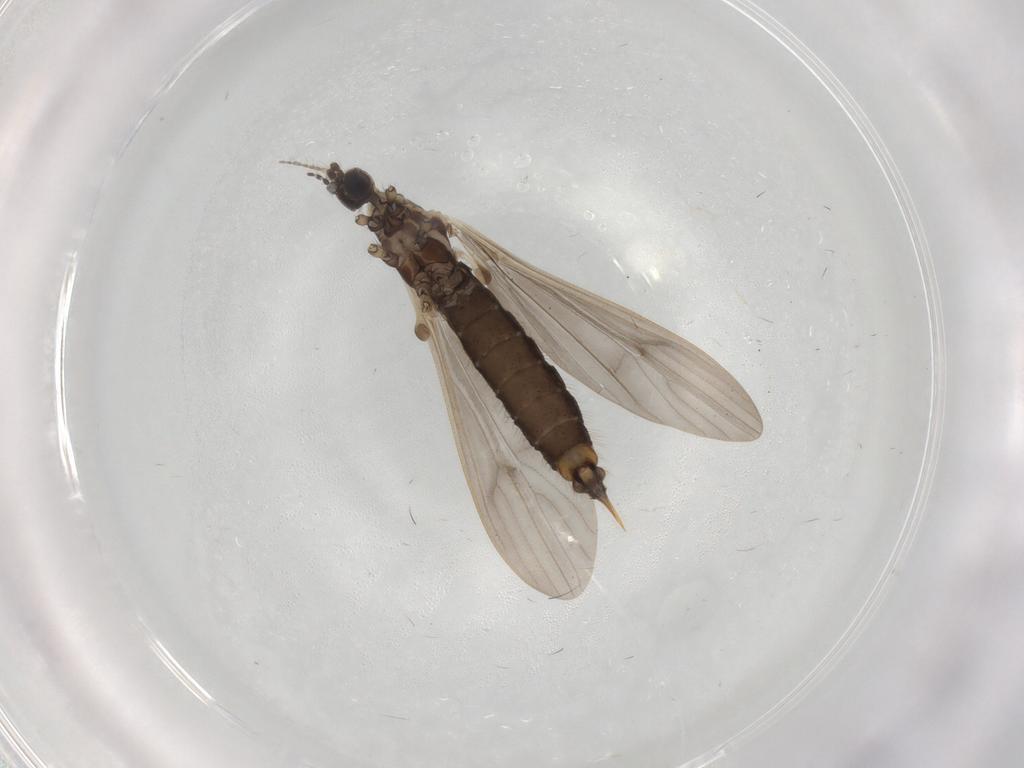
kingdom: Animalia
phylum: Arthropoda
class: Insecta
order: Diptera
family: Limoniidae
